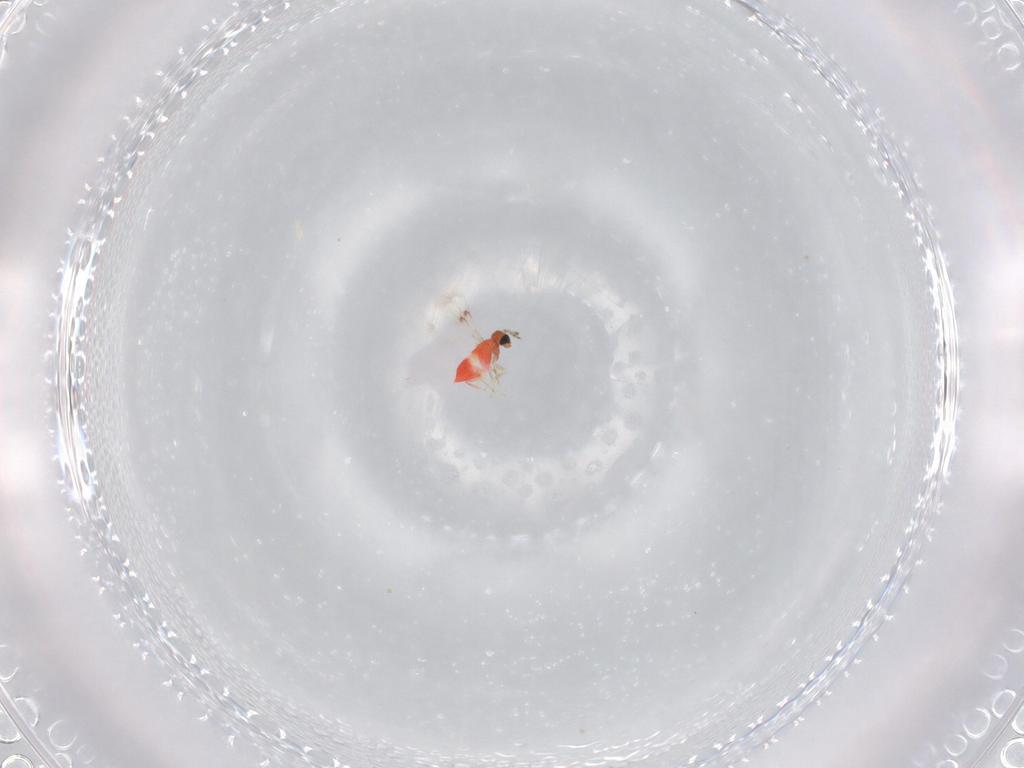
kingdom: Animalia
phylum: Arthropoda
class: Insecta
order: Hymenoptera
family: Trichogrammatidae
